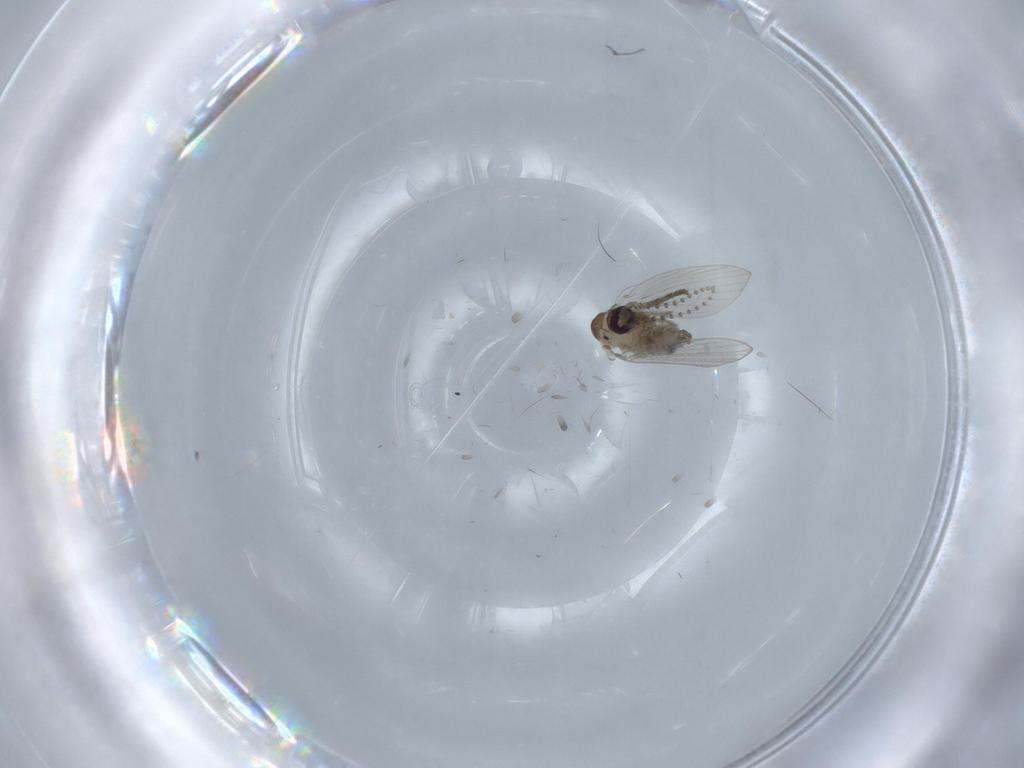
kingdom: Animalia
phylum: Arthropoda
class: Insecta
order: Diptera
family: Psychodidae
